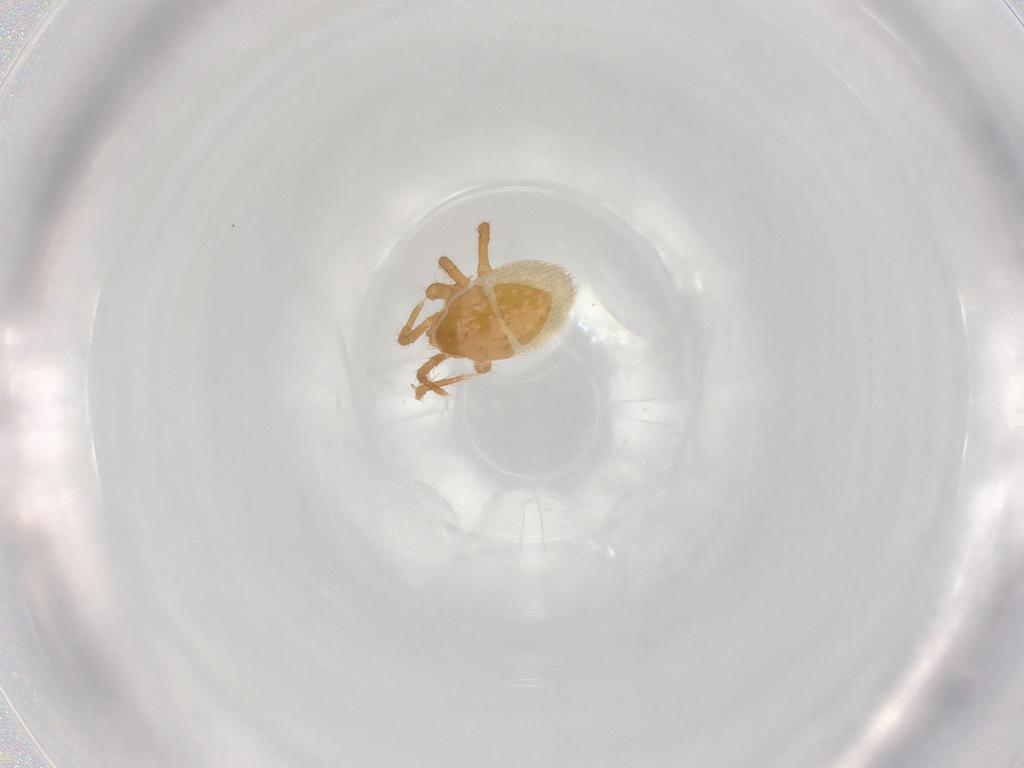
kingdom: Animalia
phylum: Arthropoda
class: Arachnida
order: Mesostigmata
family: Parasitidae
